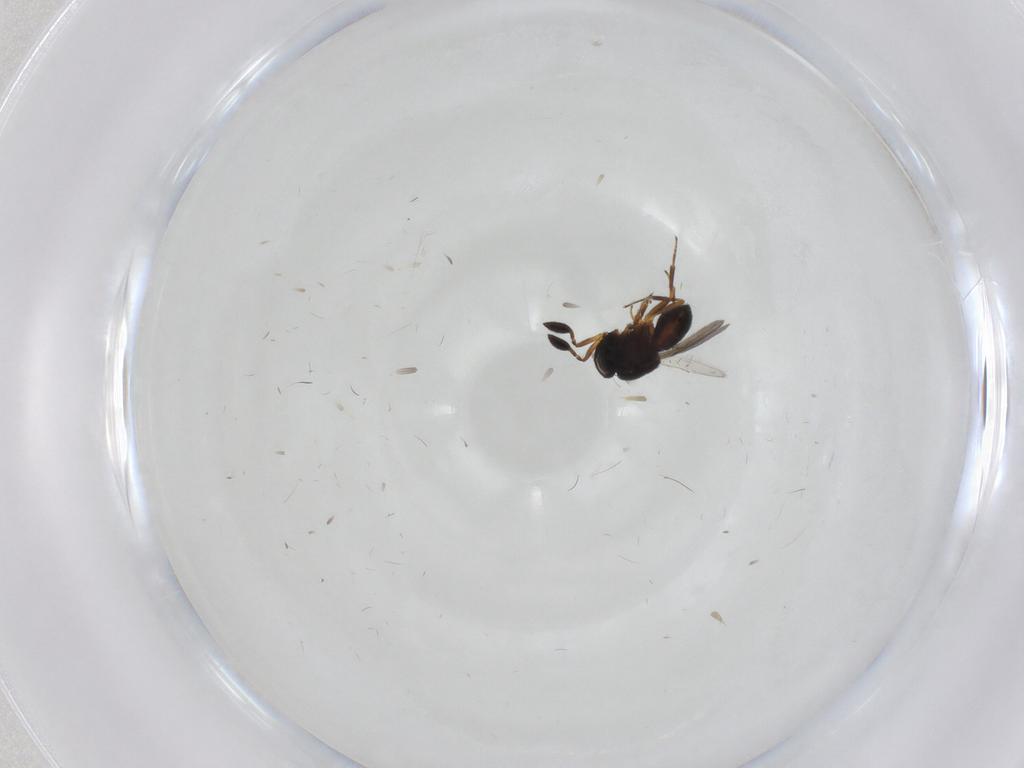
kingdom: Animalia
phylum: Arthropoda
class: Insecta
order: Hymenoptera
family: Scelionidae
